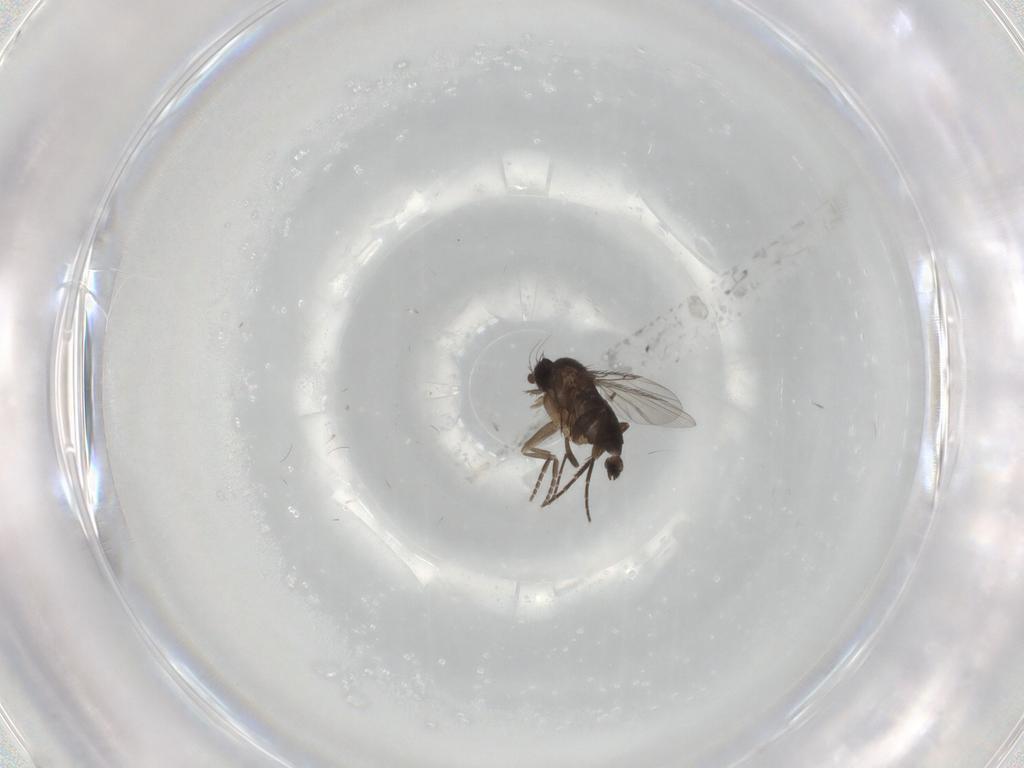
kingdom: Animalia
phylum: Arthropoda
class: Insecta
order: Diptera
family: Phoridae
